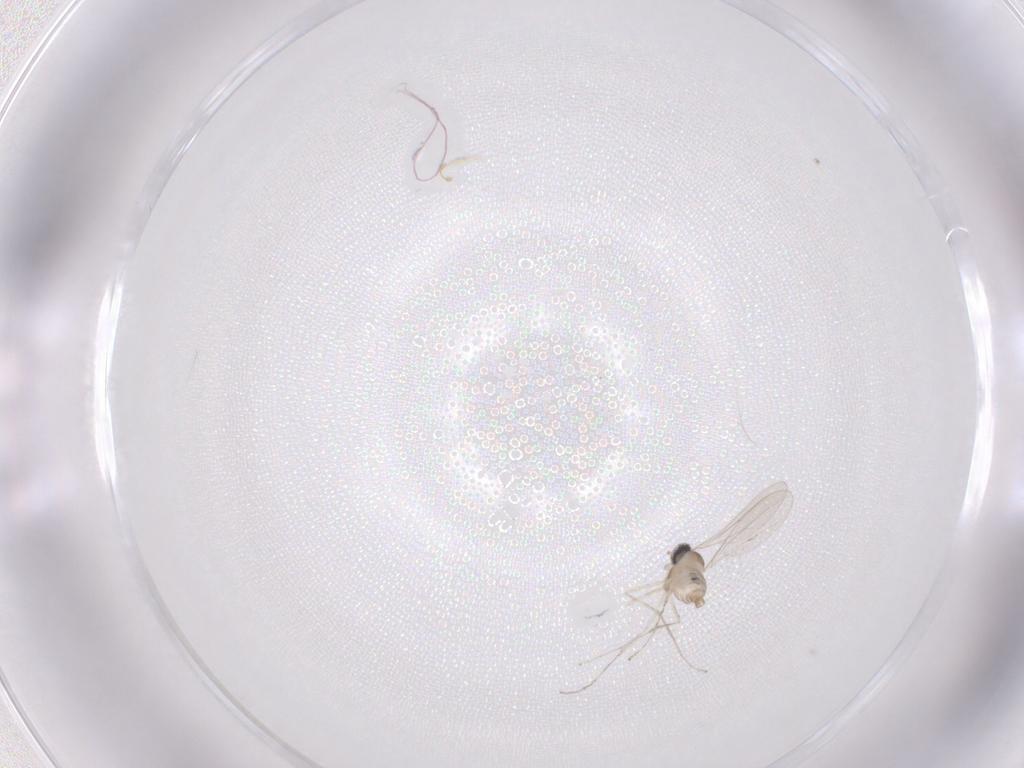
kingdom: Animalia
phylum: Arthropoda
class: Insecta
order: Diptera
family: Cecidomyiidae
